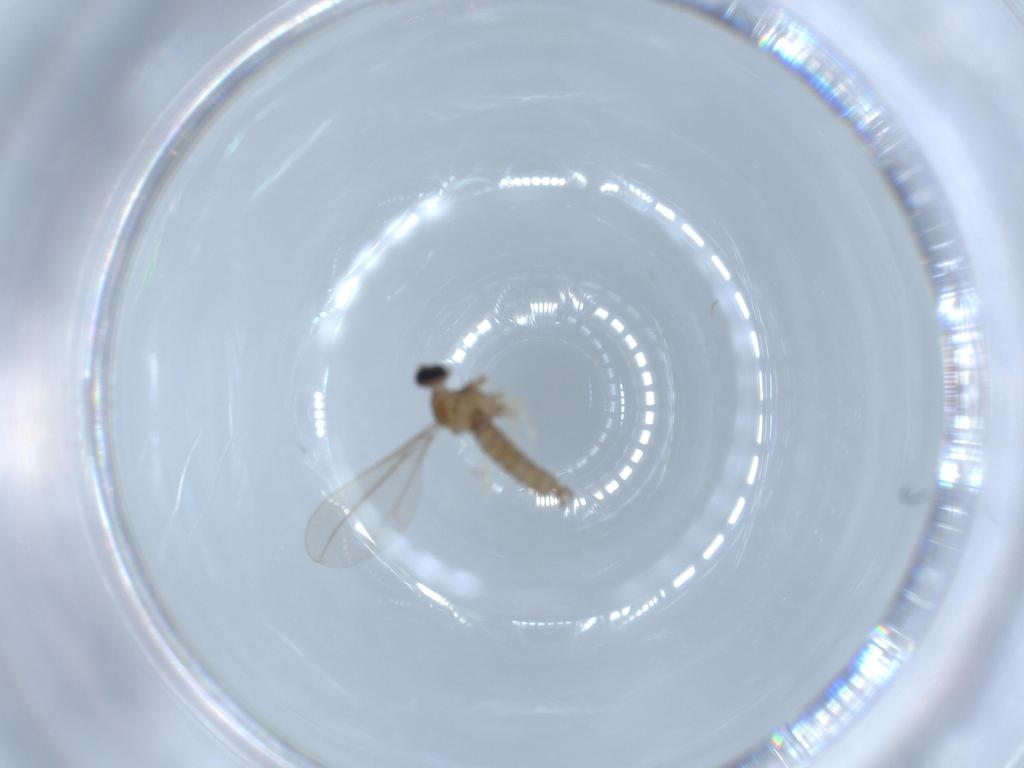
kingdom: Animalia
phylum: Arthropoda
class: Insecta
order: Diptera
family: Cecidomyiidae
